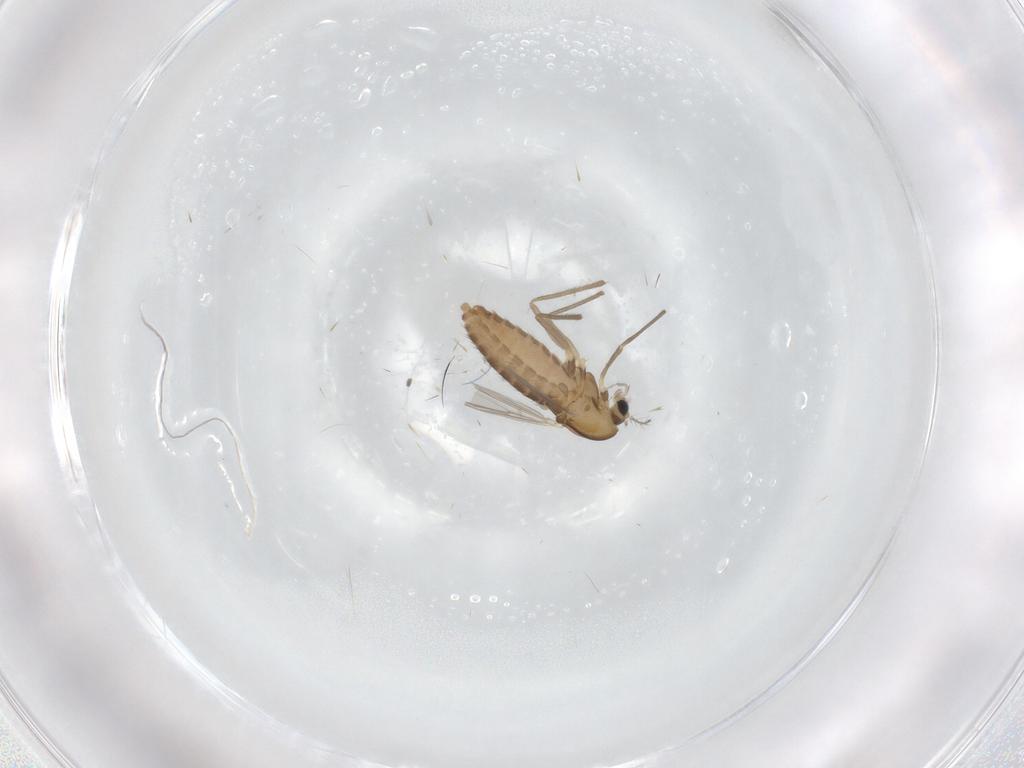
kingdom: Animalia
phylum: Arthropoda
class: Insecta
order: Diptera
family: Chironomidae
